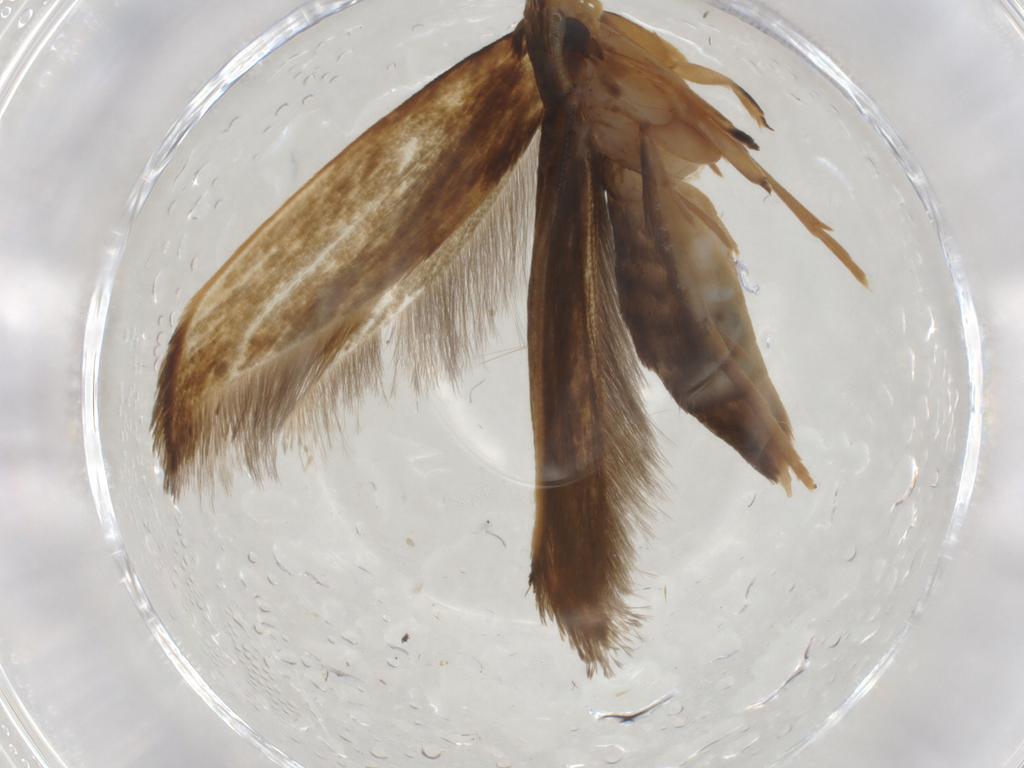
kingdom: Animalia
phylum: Arthropoda
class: Insecta
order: Lepidoptera
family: Tineidae
